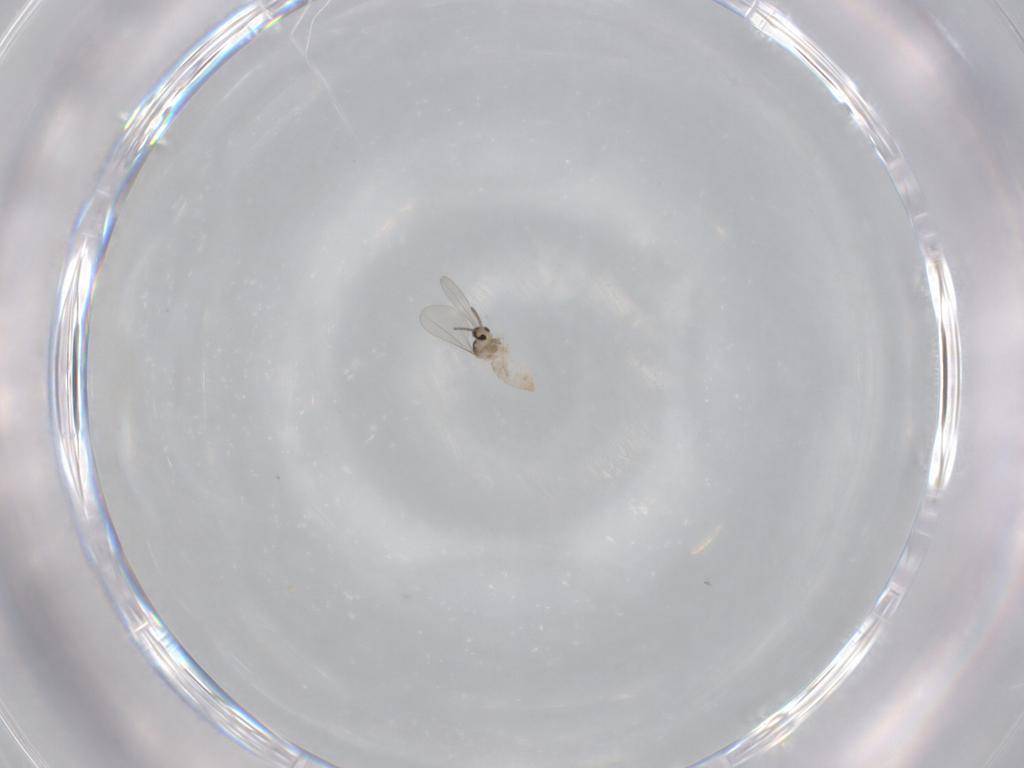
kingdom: Animalia
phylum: Arthropoda
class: Insecta
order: Diptera
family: Cecidomyiidae
